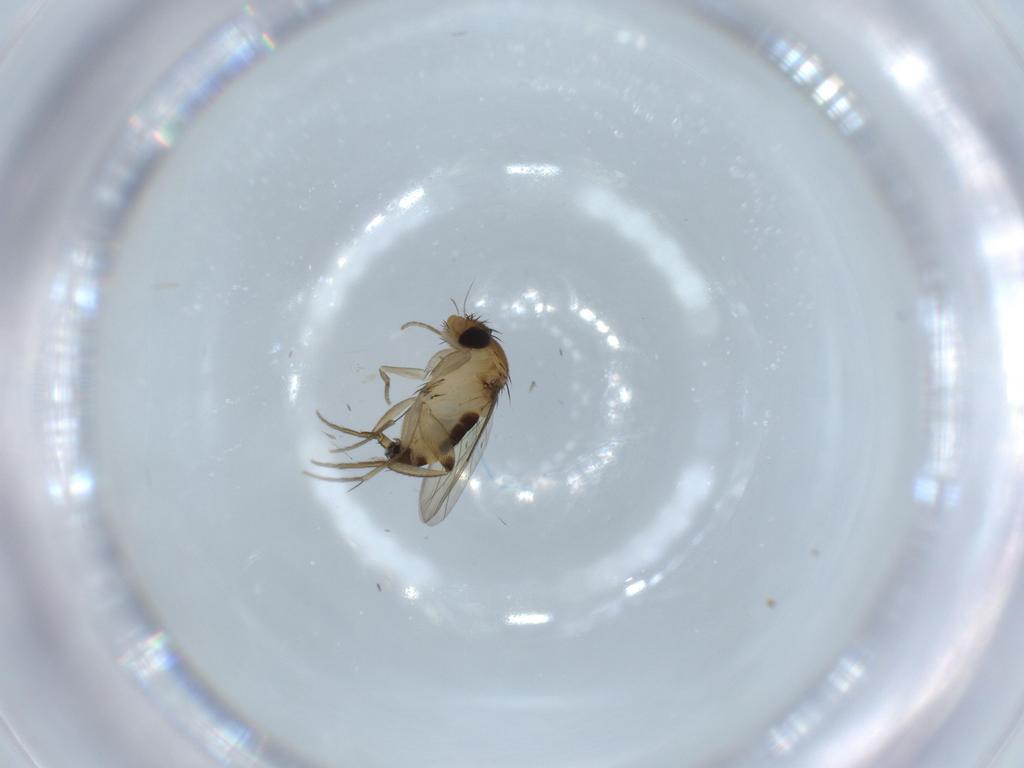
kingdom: Animalia
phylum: Arthropoda
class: Insecta
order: Diptera
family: Phoridae
